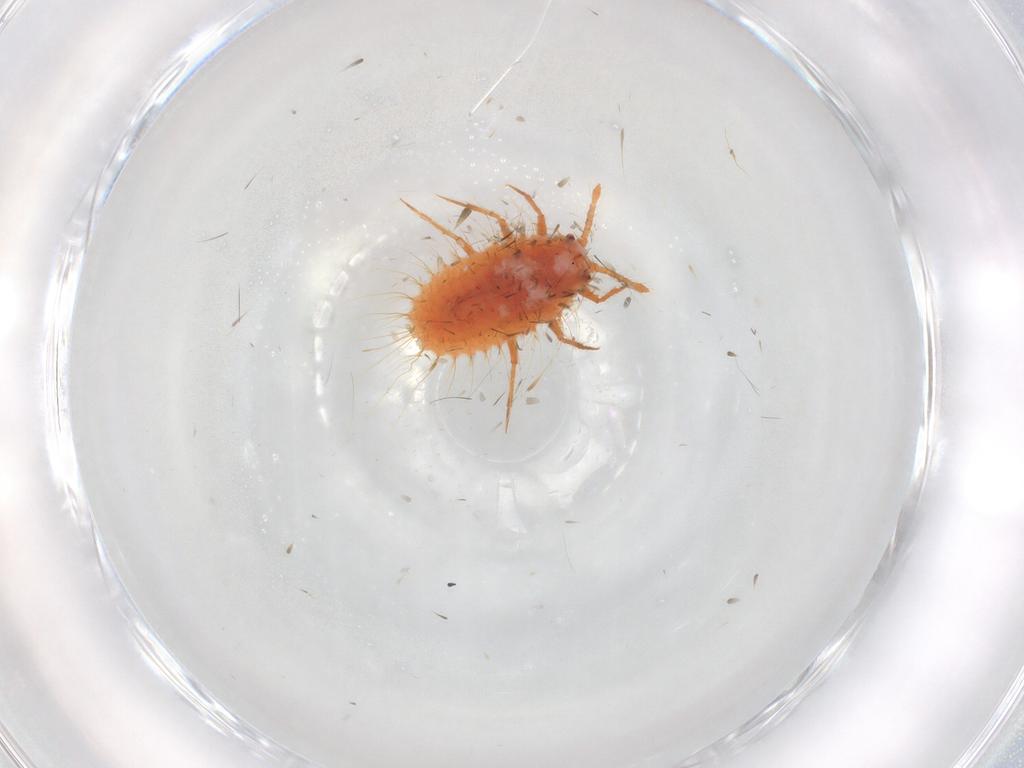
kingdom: Animalia
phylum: Arthropoda
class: Insecta
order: Hemiptera
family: Coccoidea_incertae_sedis
